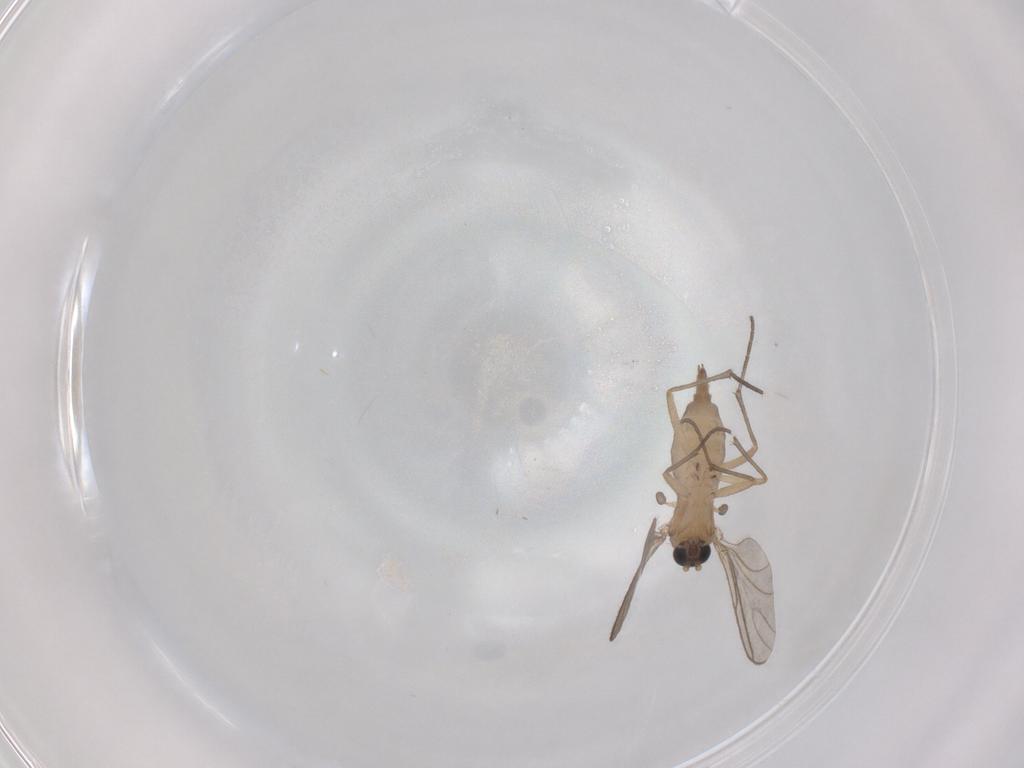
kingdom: Animalia
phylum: Arthropoda
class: Insecta
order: Diptera
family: Sciaridae
